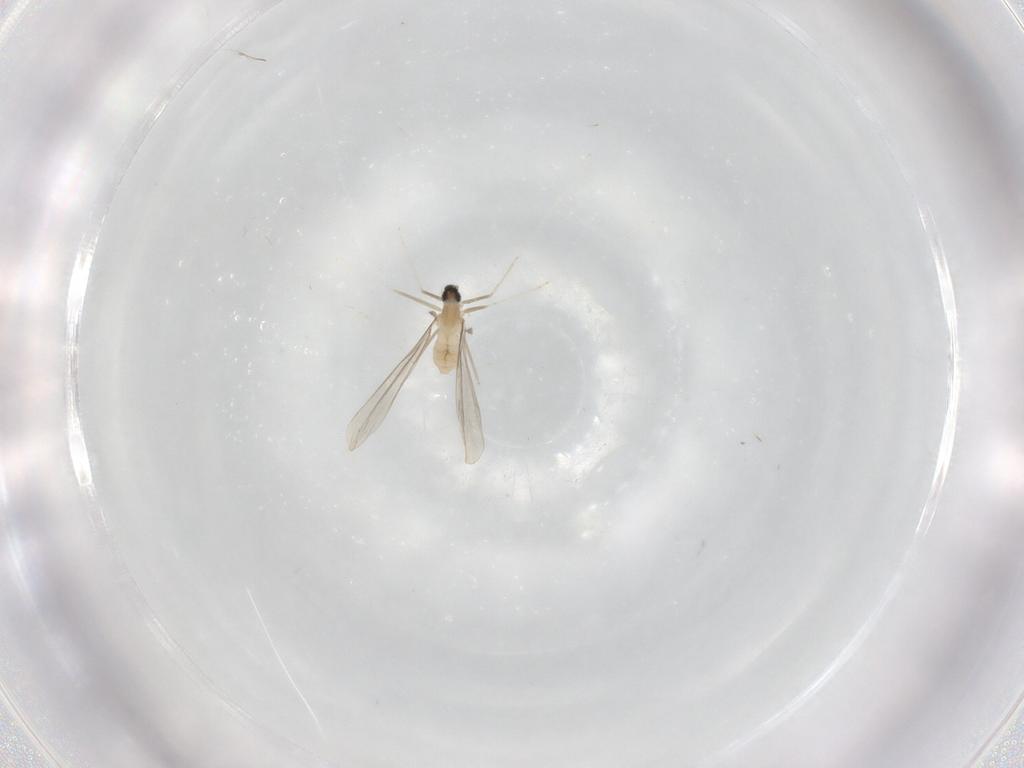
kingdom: Animalia
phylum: Arthropoda
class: Insecta
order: Diptera
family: Cecidomyiidae
